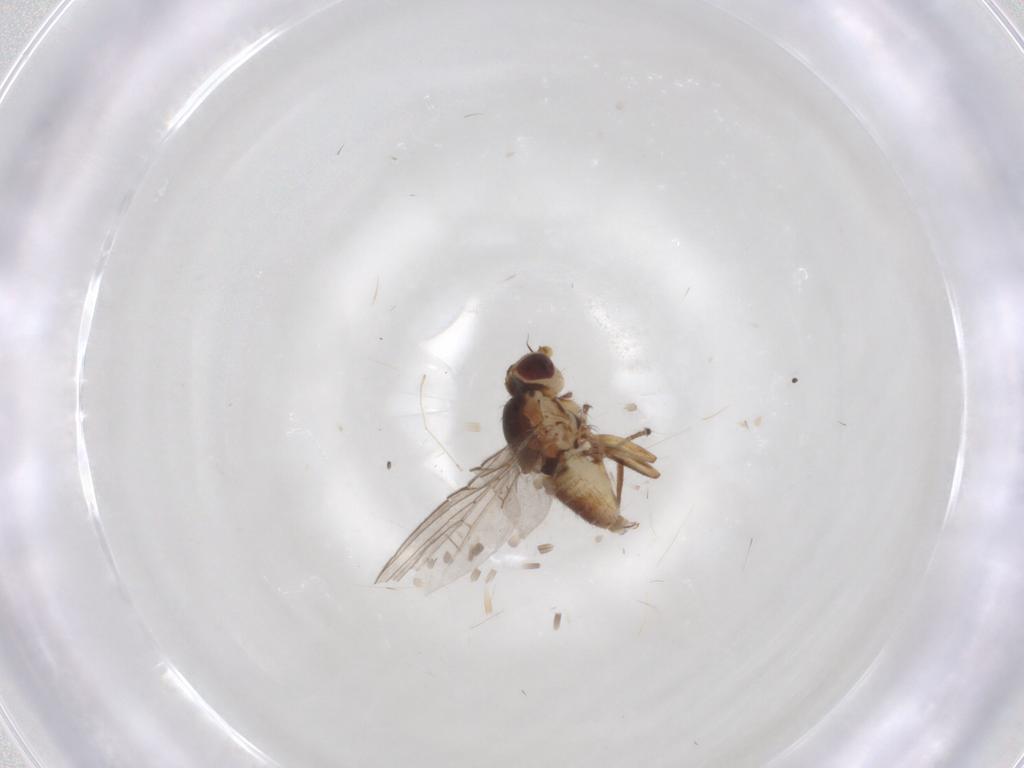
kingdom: Animalia
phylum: Arthropoda
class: Insecta
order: Diptera
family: Agromyzidae
